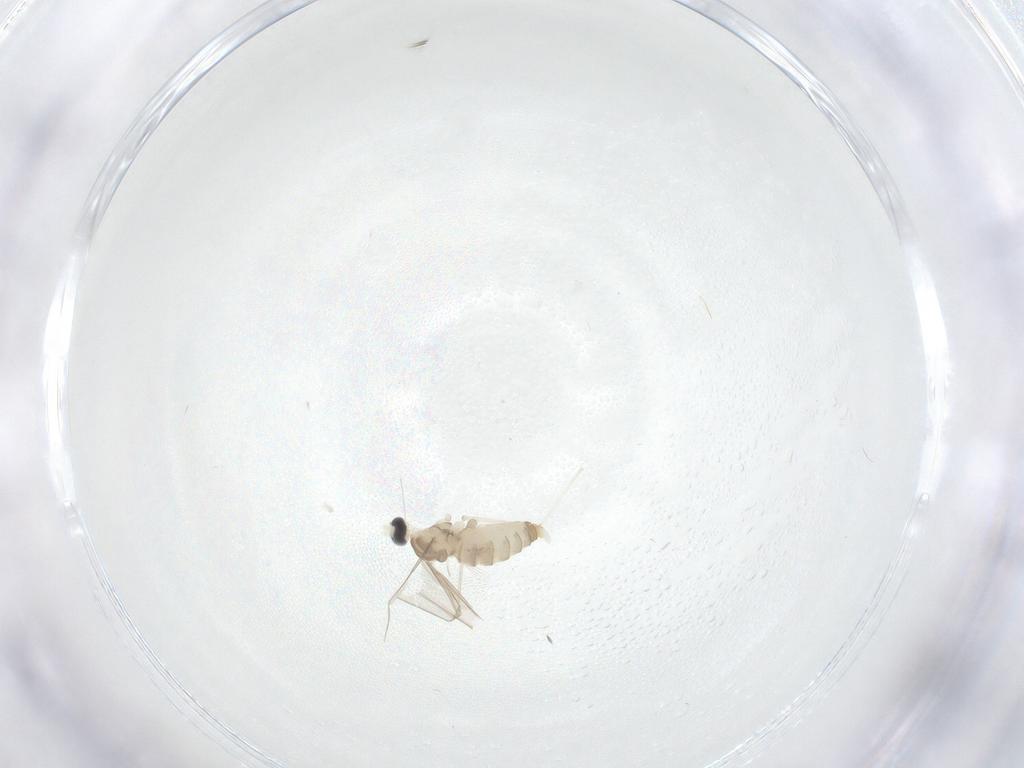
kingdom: Animalia
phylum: Arthropoda
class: Insecta
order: Diptera
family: Cecidomyiidae
